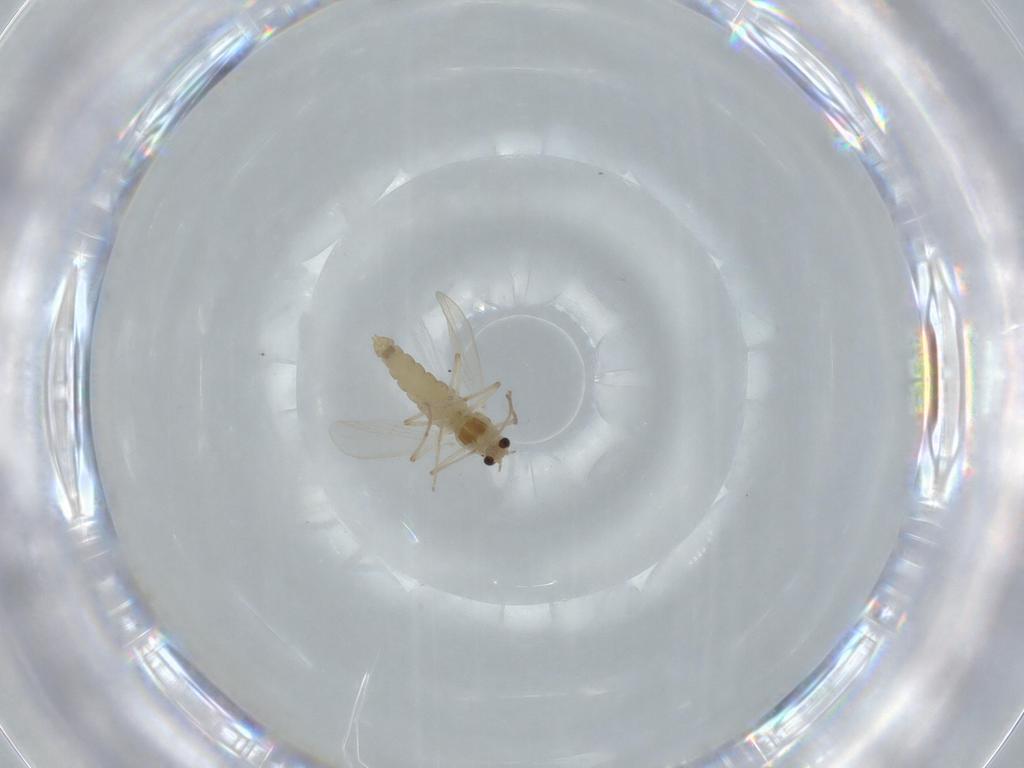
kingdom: Animalia
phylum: Arthropoda
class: Insecta
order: Diptera
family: Chironomidae
